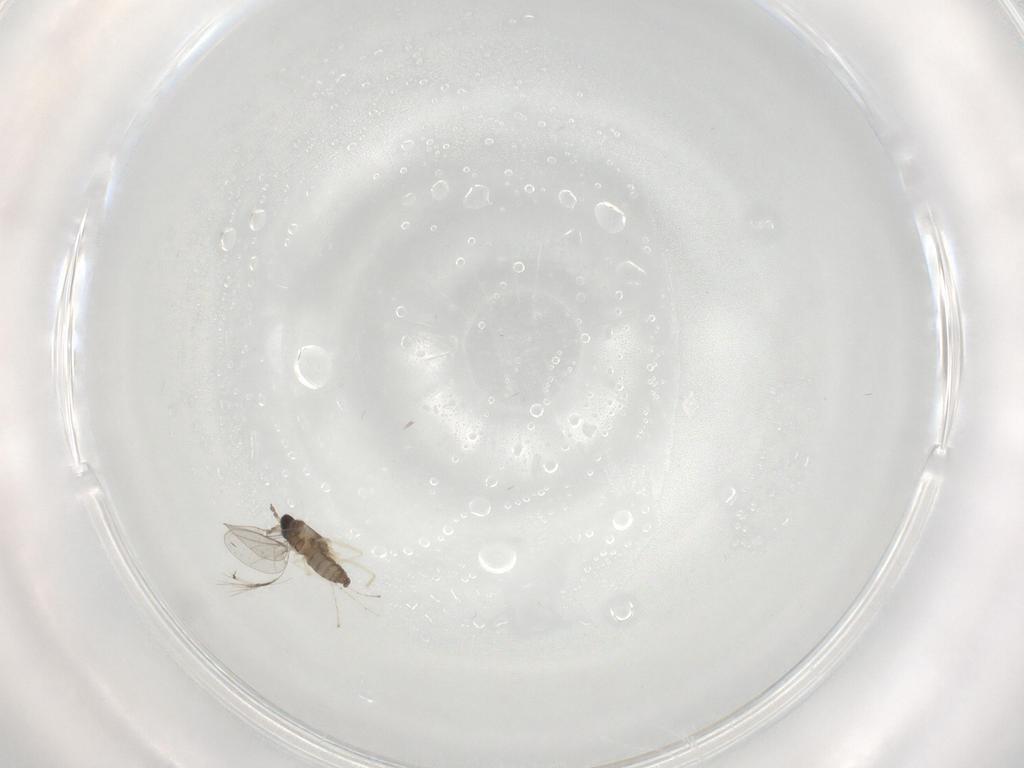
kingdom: Animalia
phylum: Arthropoda
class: Insecta
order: Diptera
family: Cecidomyiidae
